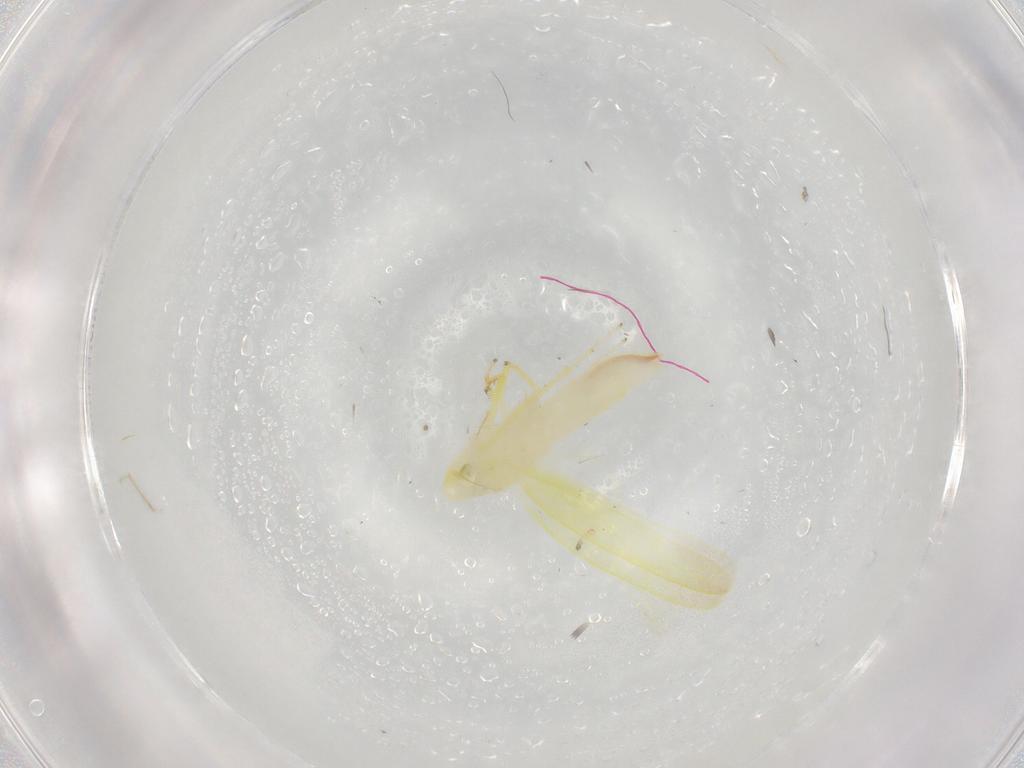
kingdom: Animalia
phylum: Arthropoda
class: Insecta
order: Hemiptera
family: Cicadellidae
